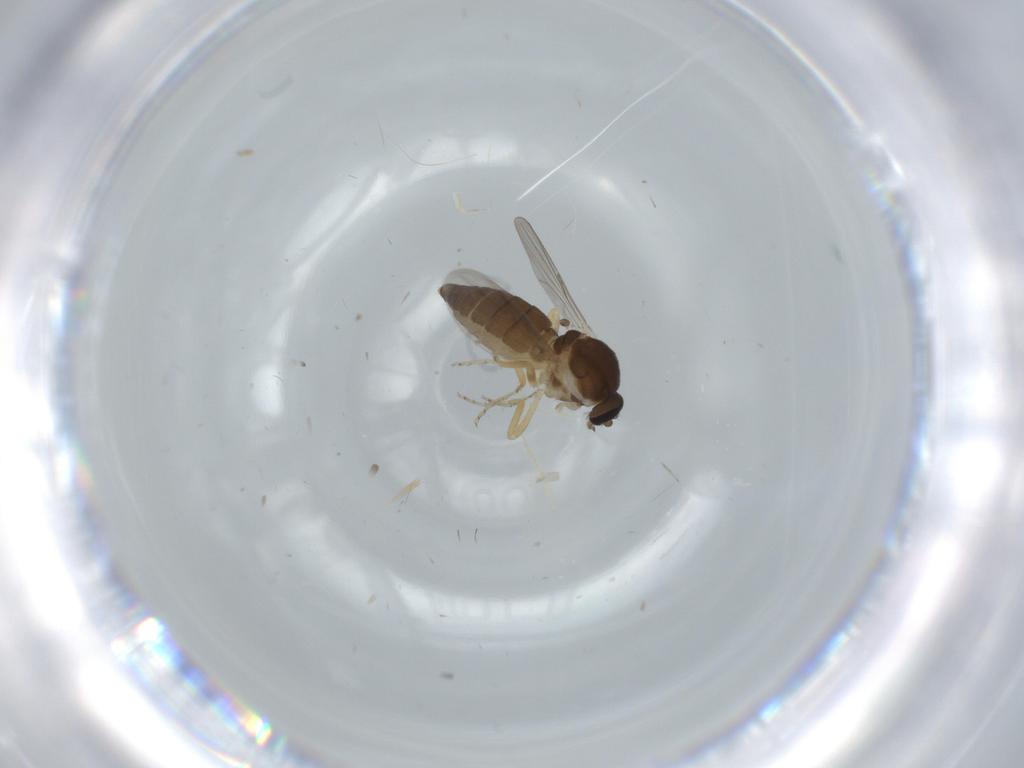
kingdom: Animalia
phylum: Arthropoda
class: Insecta
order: Diptera
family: Ceratopogonidae
